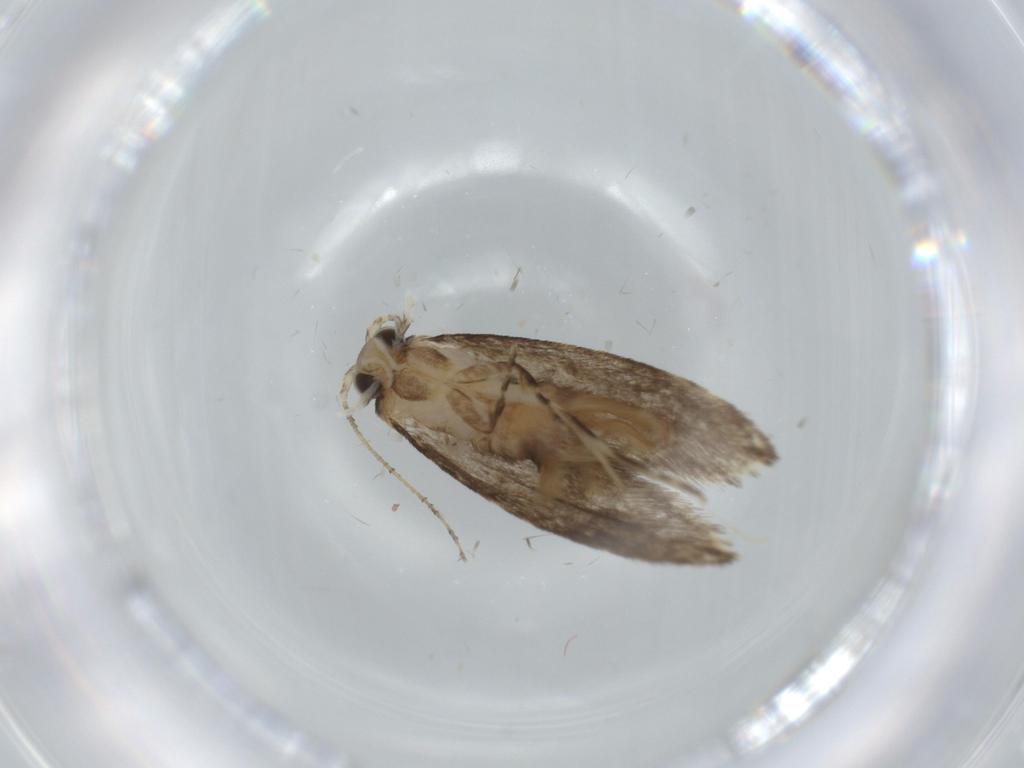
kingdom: Animalia
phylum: Arthropoda
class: Insecta
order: Lepidoptera
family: Tineidae
